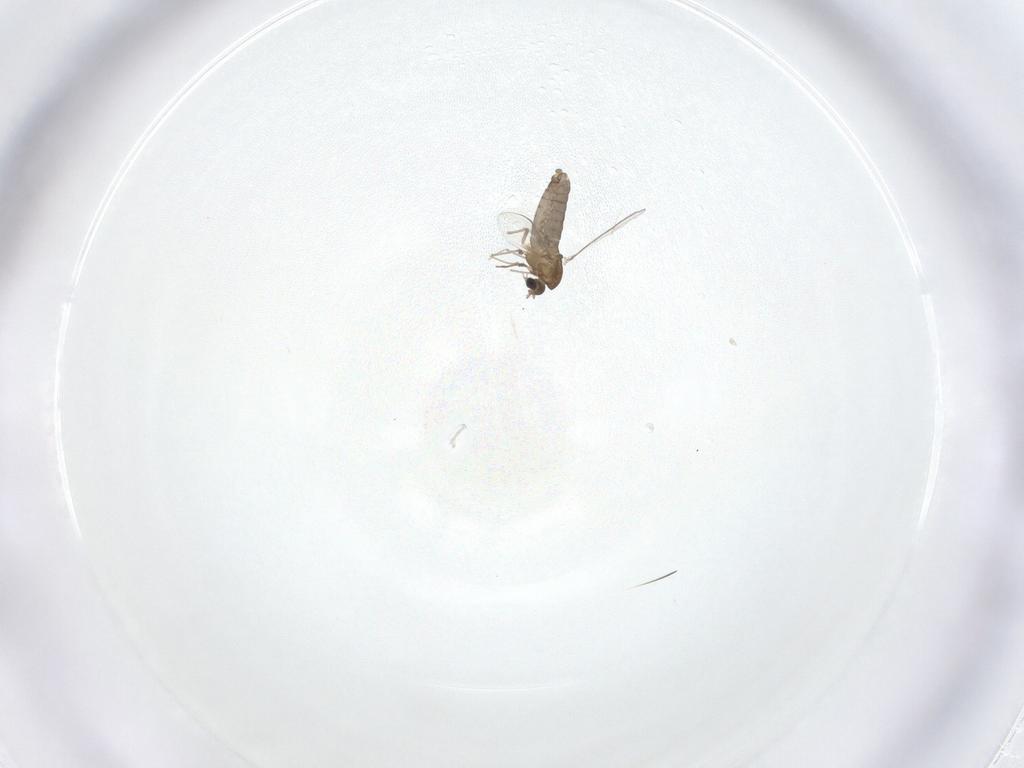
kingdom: Animalia
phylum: Arthropoda
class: Insecta
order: Diptera
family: Chironomidae
